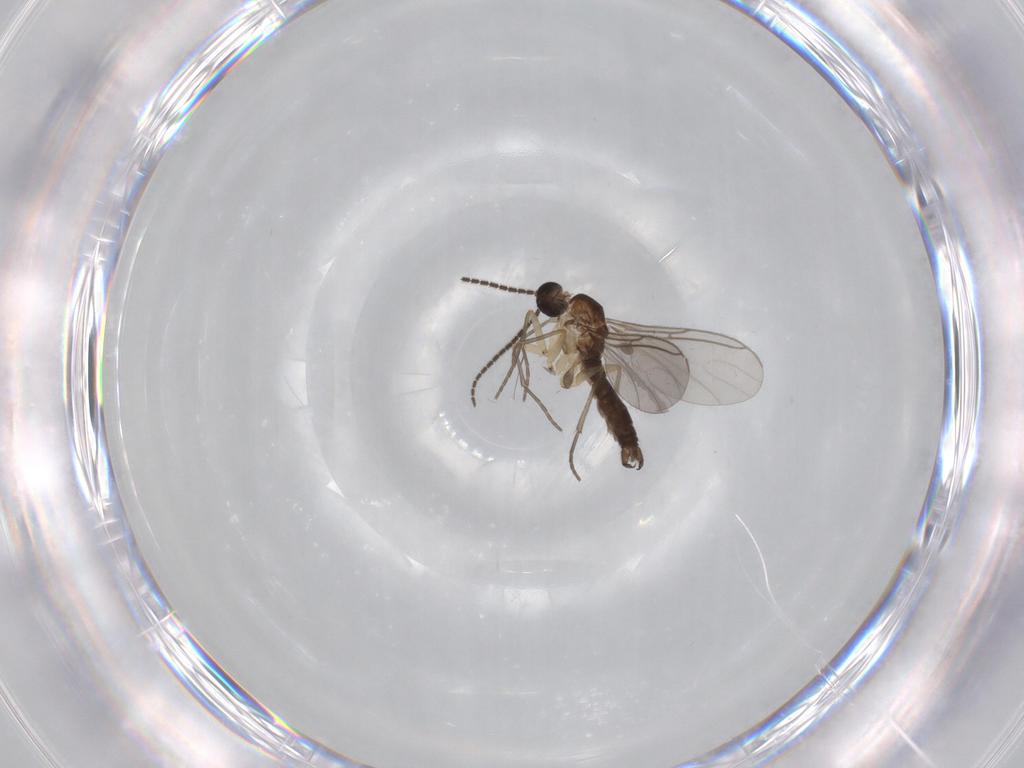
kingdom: Animalia
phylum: Arthropoda
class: Insecta
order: Diptera
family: Sciaridae
